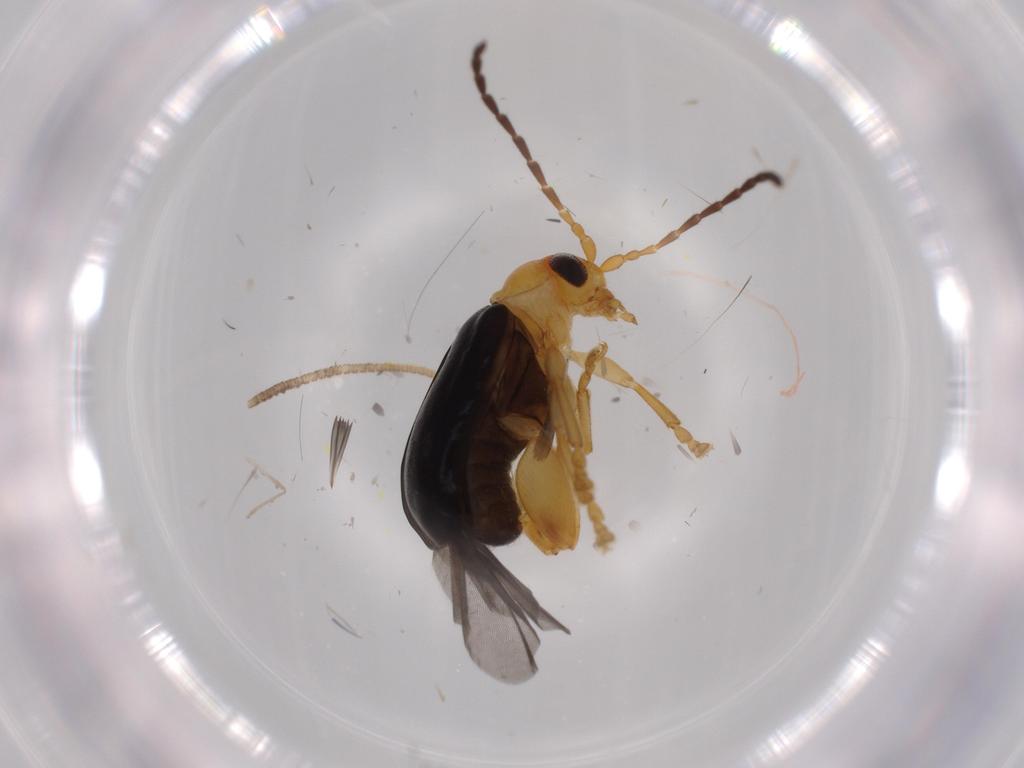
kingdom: Animalia
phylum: Arthropoda
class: Insecta
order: Coleoptera
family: Chrysomelidae
